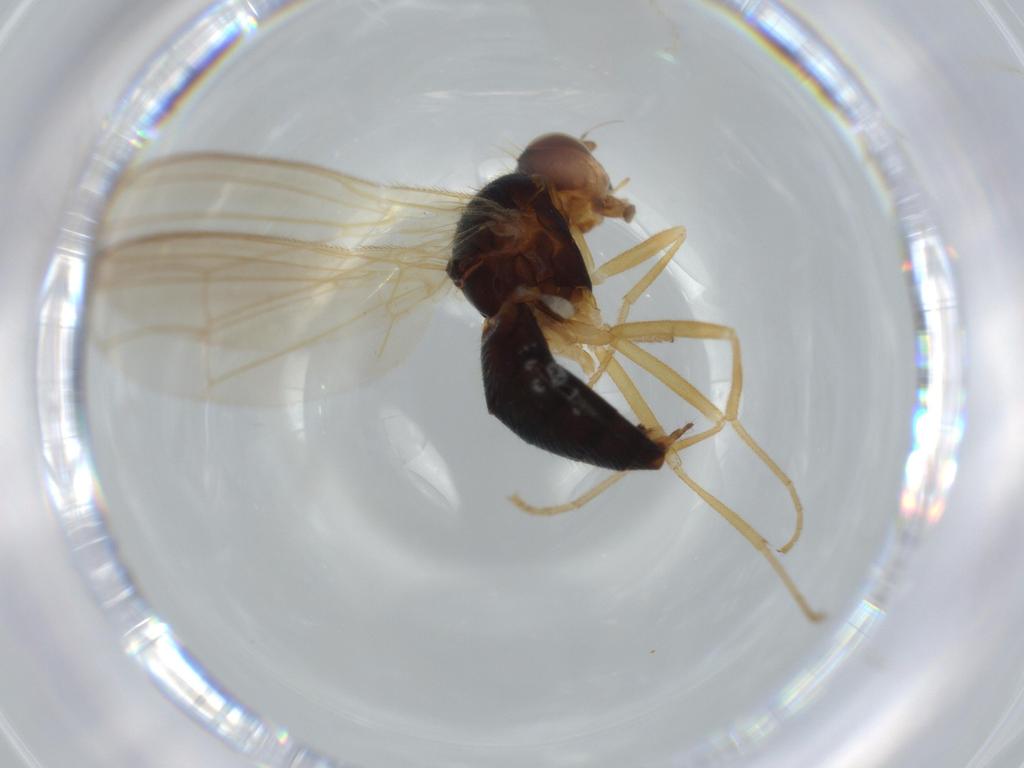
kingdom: Animalia
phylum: Arthropoda
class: Insecta
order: Diptera
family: Psilidae
